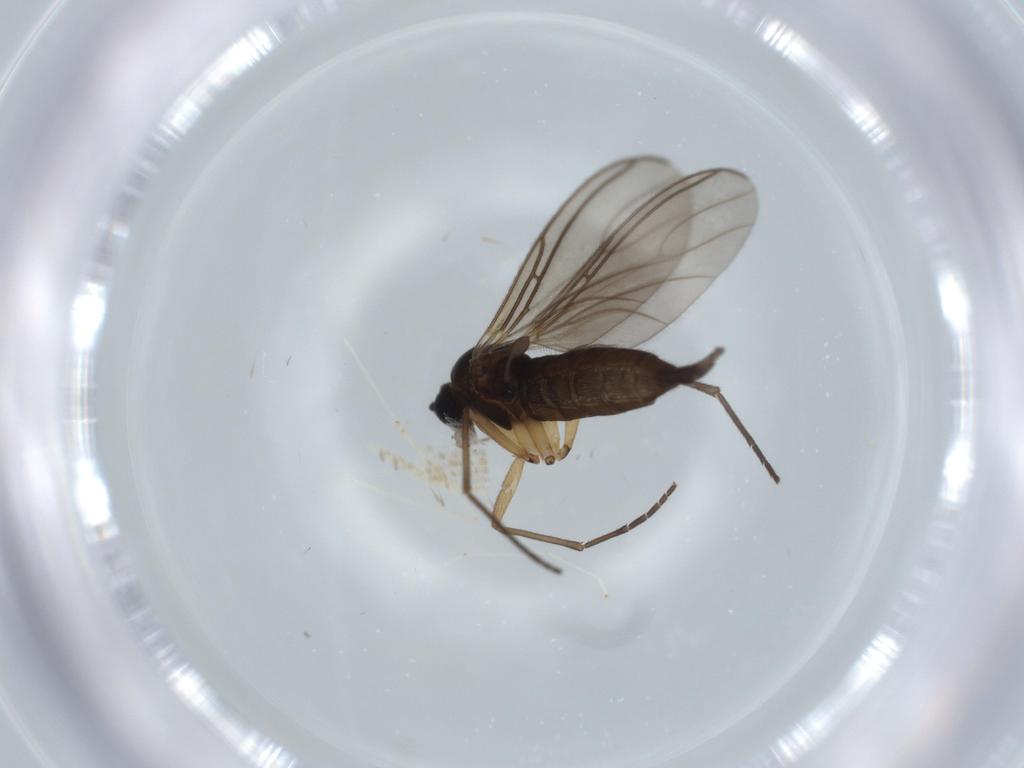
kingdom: Animalia
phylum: Arthropoda
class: Insecta
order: Diptera
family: Sciaridae
